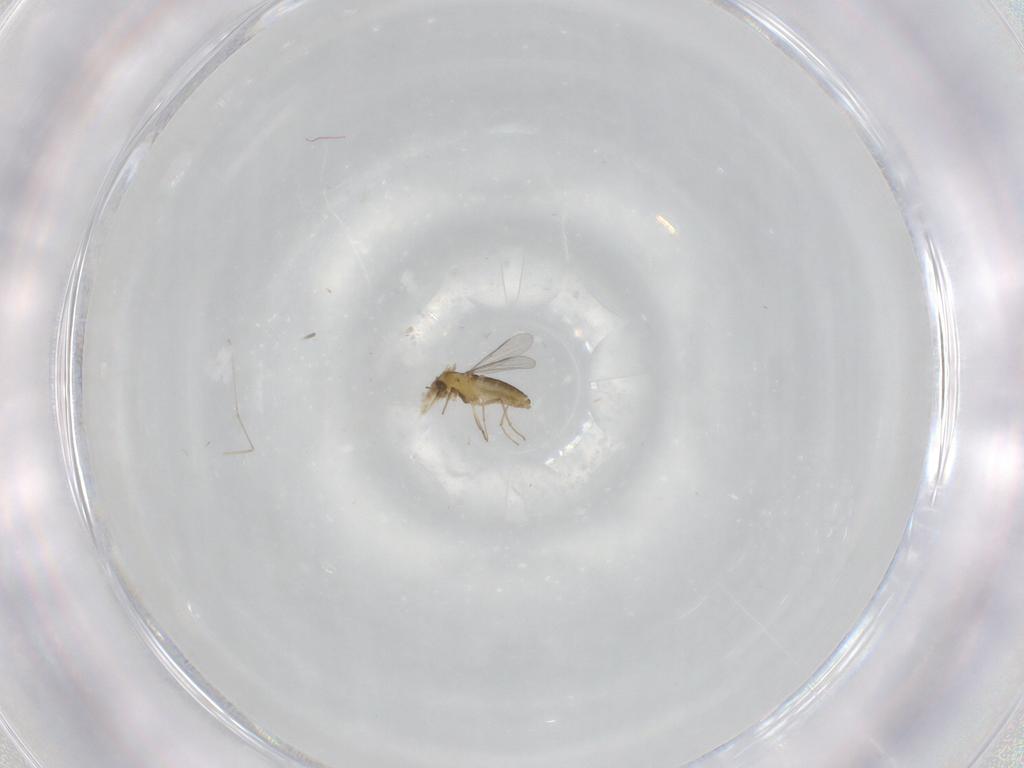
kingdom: Animalia
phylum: Arthropoda
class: Insecta
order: Diptera
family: Chironomidae
